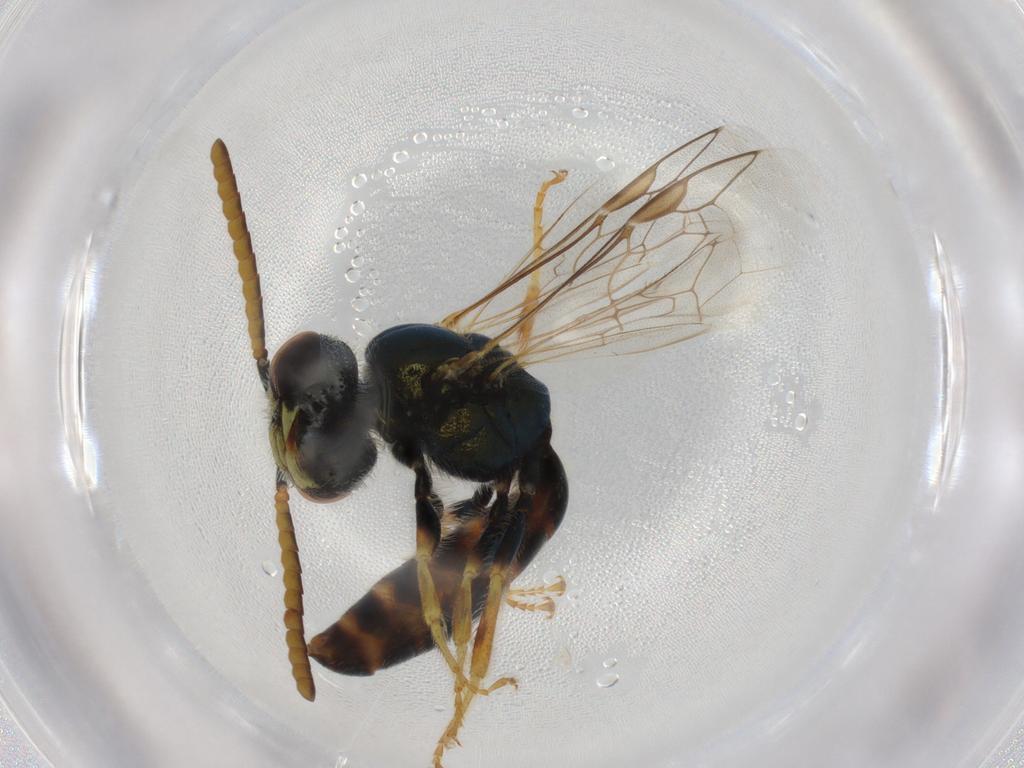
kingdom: Animalia
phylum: Arthropoda
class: Insecta
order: Hymenoptera
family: Halictidae
